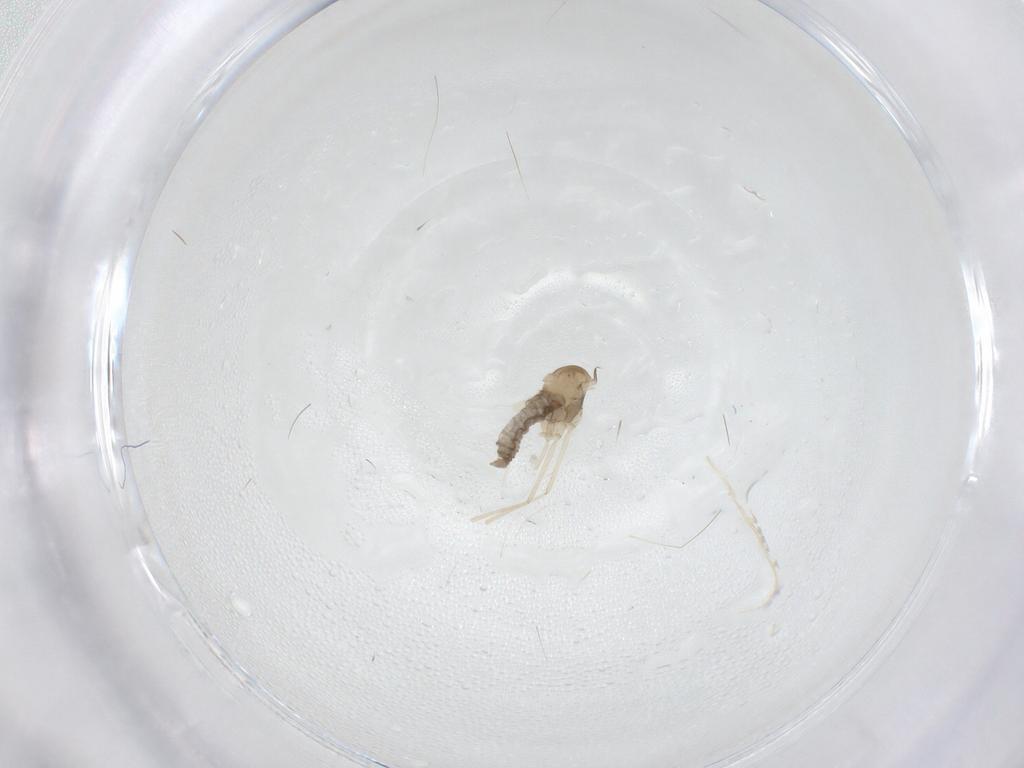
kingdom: Animalia
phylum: Arthropoda
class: Insecta
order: Diptera
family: Cecidomyiidae
